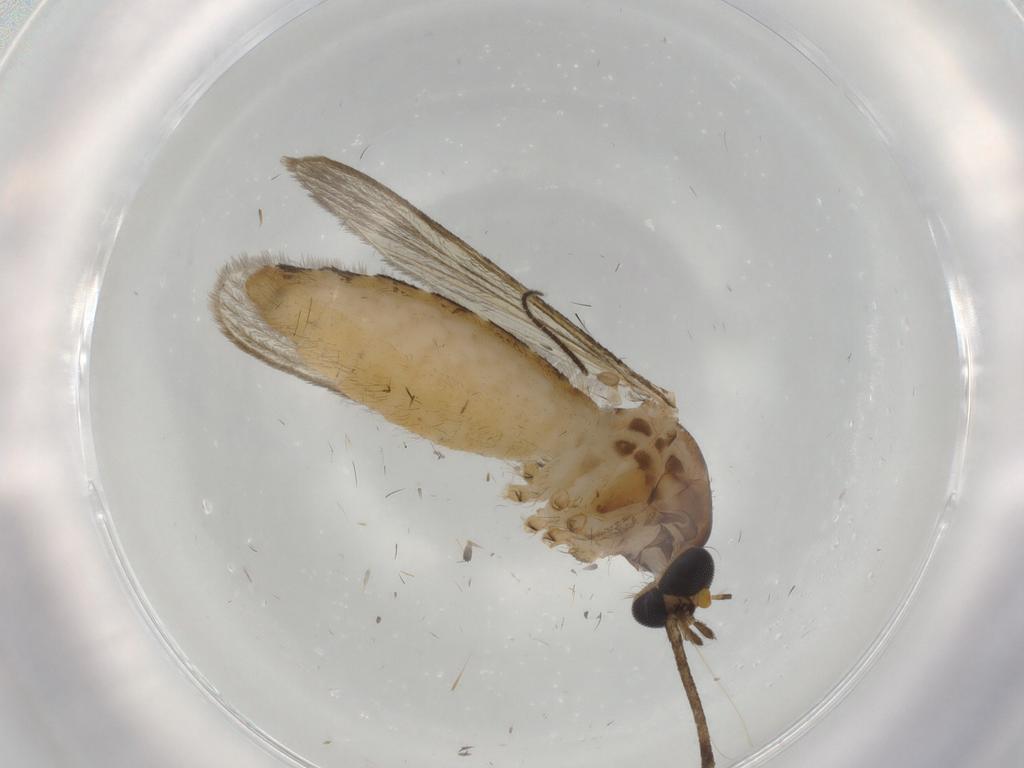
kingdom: Animalia
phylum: Arthropoda
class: Insecta
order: Diptera
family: Culicidae
